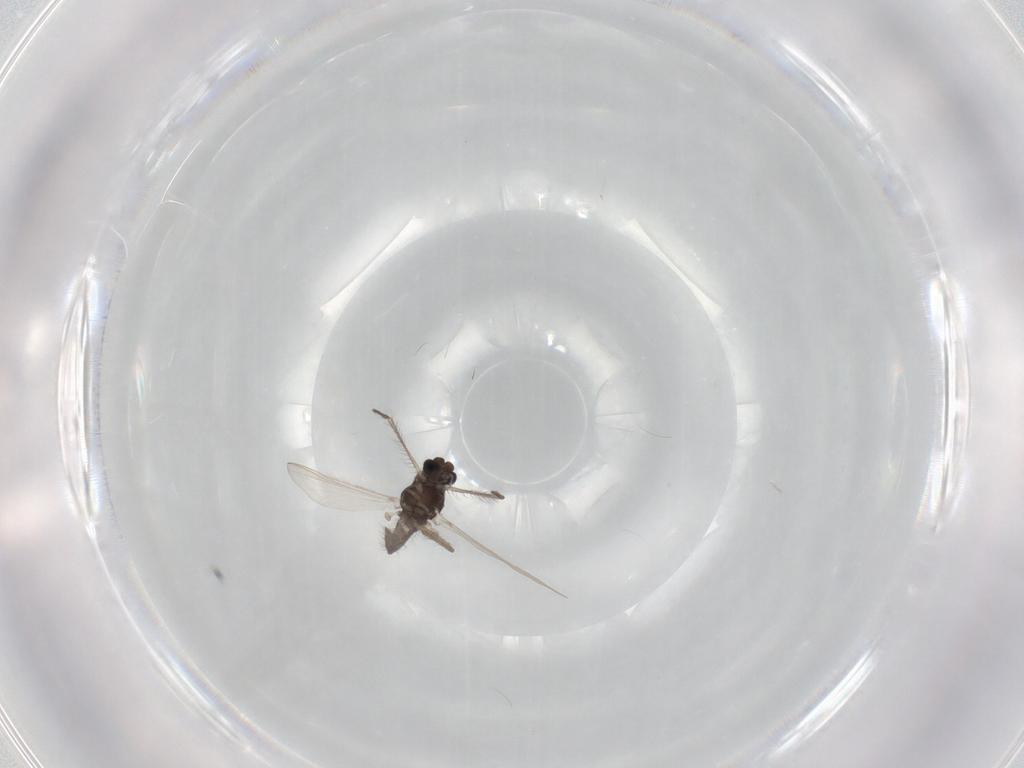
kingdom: Animalia
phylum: Arthropoda
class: Insecta
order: Diptera
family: Chironomidae
